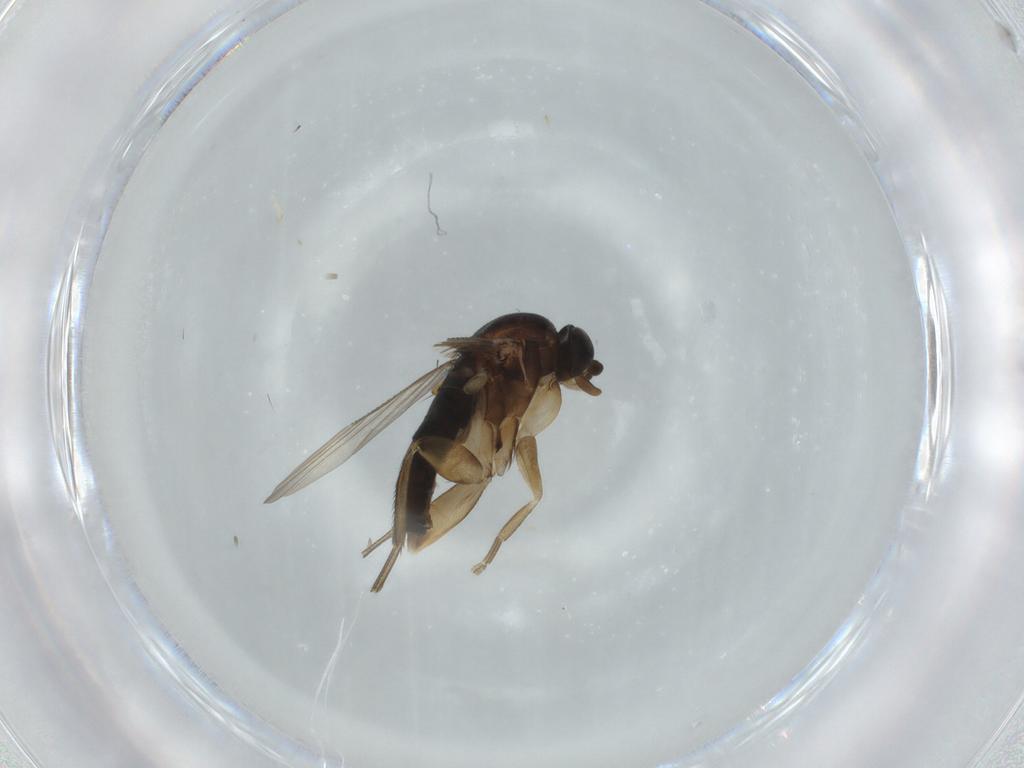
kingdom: Animalia
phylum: Arthropoda
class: Insecta
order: Diptera
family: Phoridae
